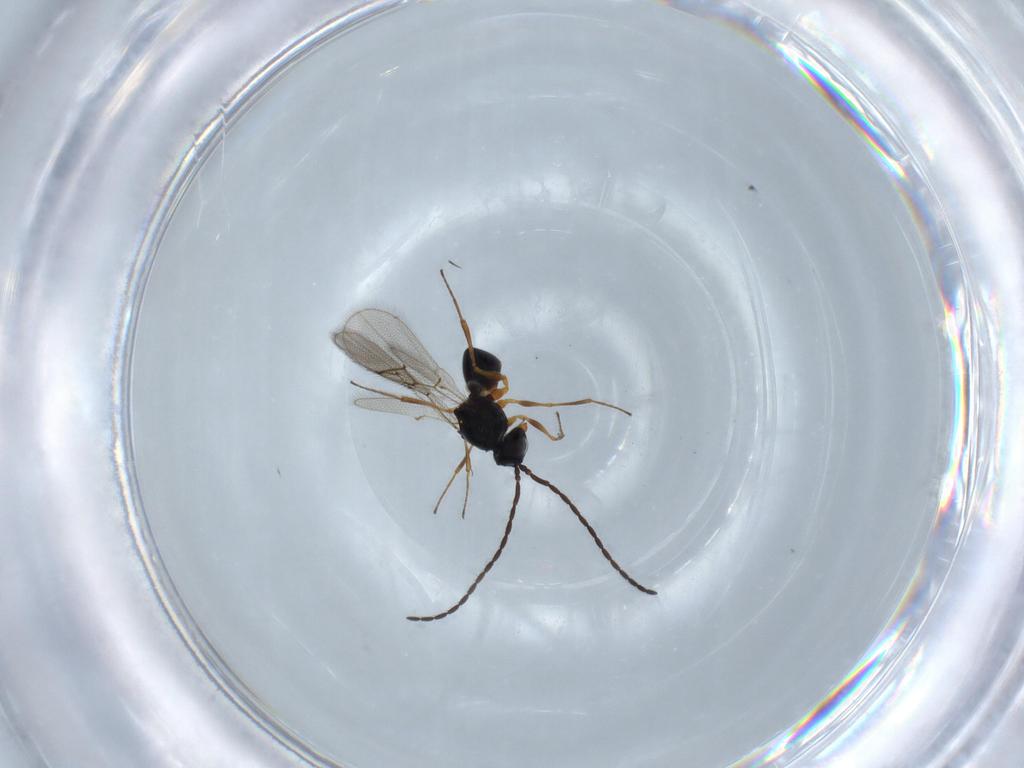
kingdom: Animalia
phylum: Arthropoda
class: Insecta
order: Hymenoptera
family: Figitidae
